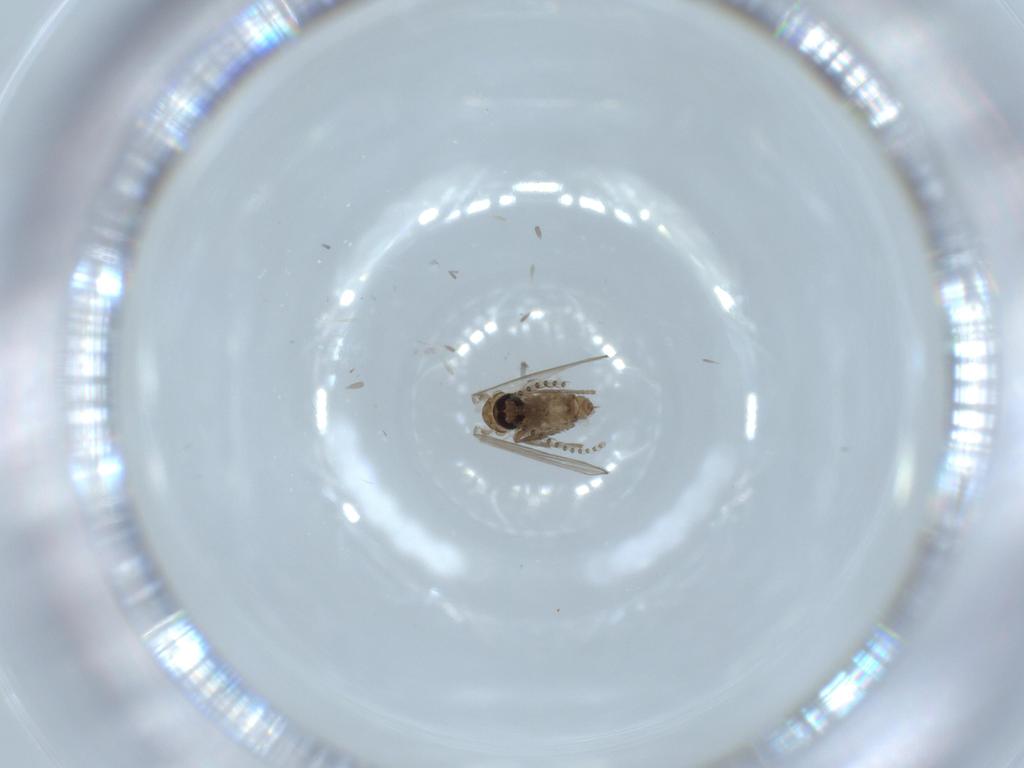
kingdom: Animalia
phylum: Arthropoda
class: Insecta
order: Diptera
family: Psychodidae
